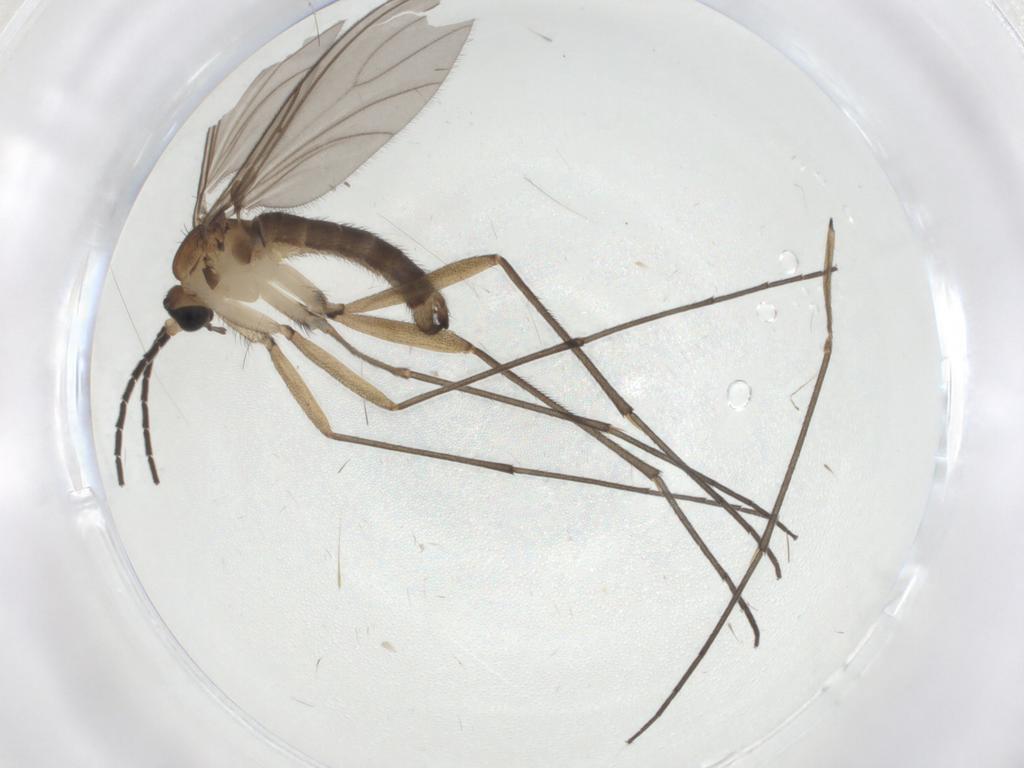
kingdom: Animalia
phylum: Arthropoda
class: Insecta
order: Diptera
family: Sciaridae
